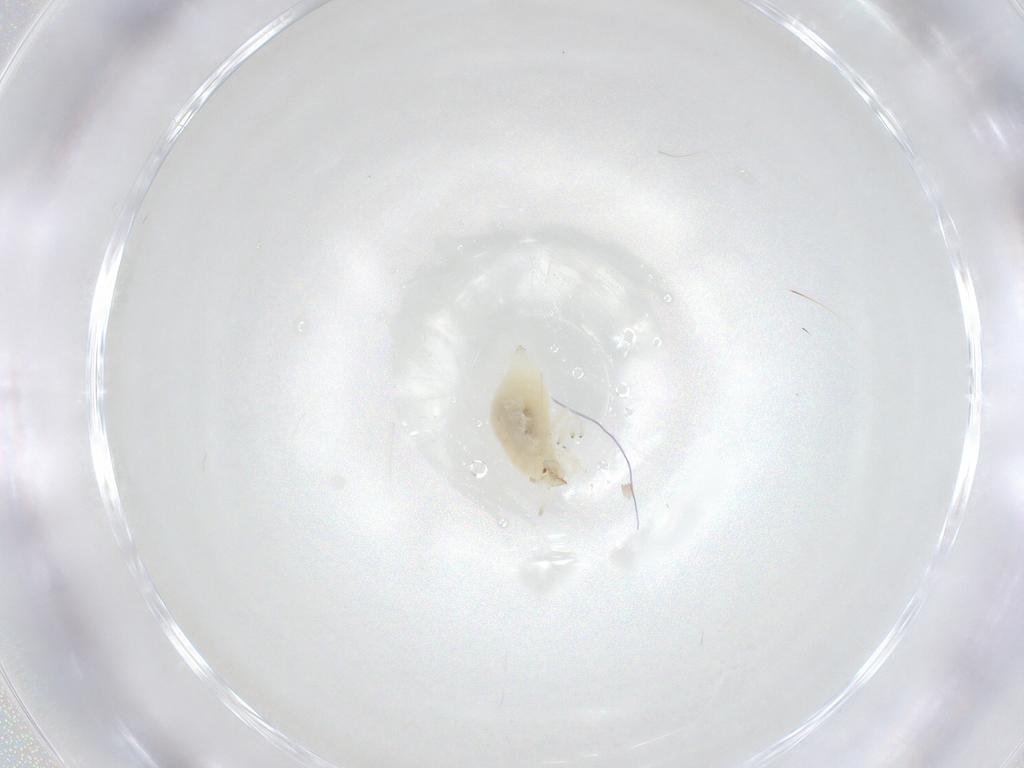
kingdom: Animalia
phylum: Arthropoda
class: Insecta
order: Neuroptera
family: Coniopterygidae
